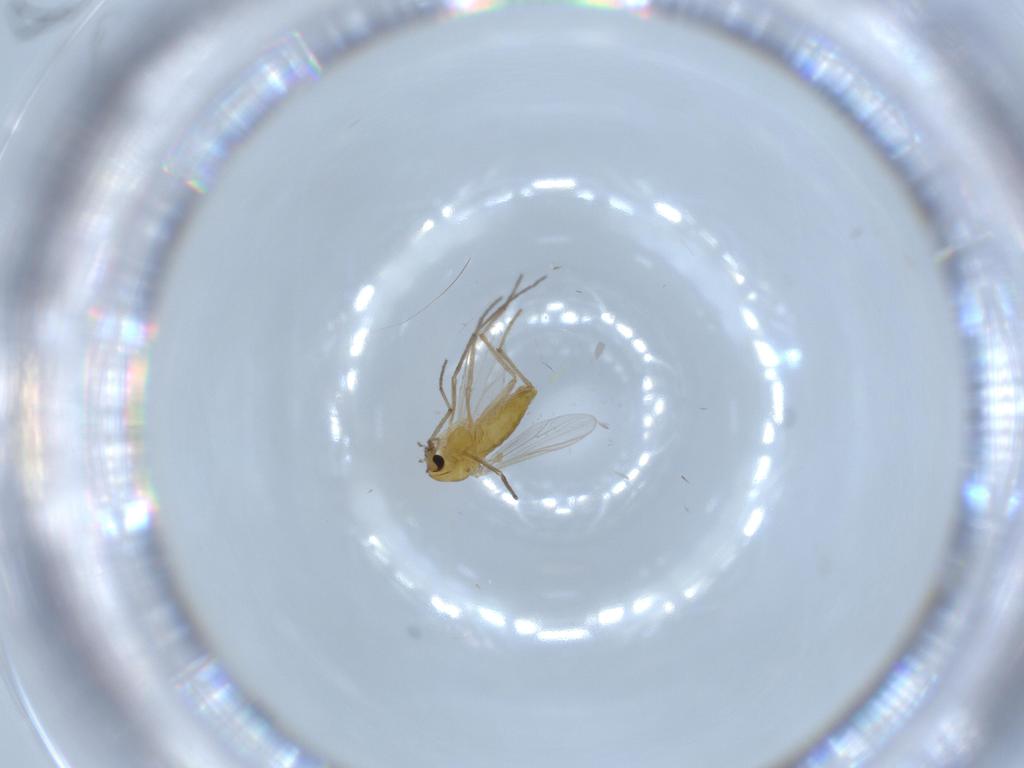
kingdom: Animalia
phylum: Arthropoda
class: Insecta
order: Diptera
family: Chironomidae
